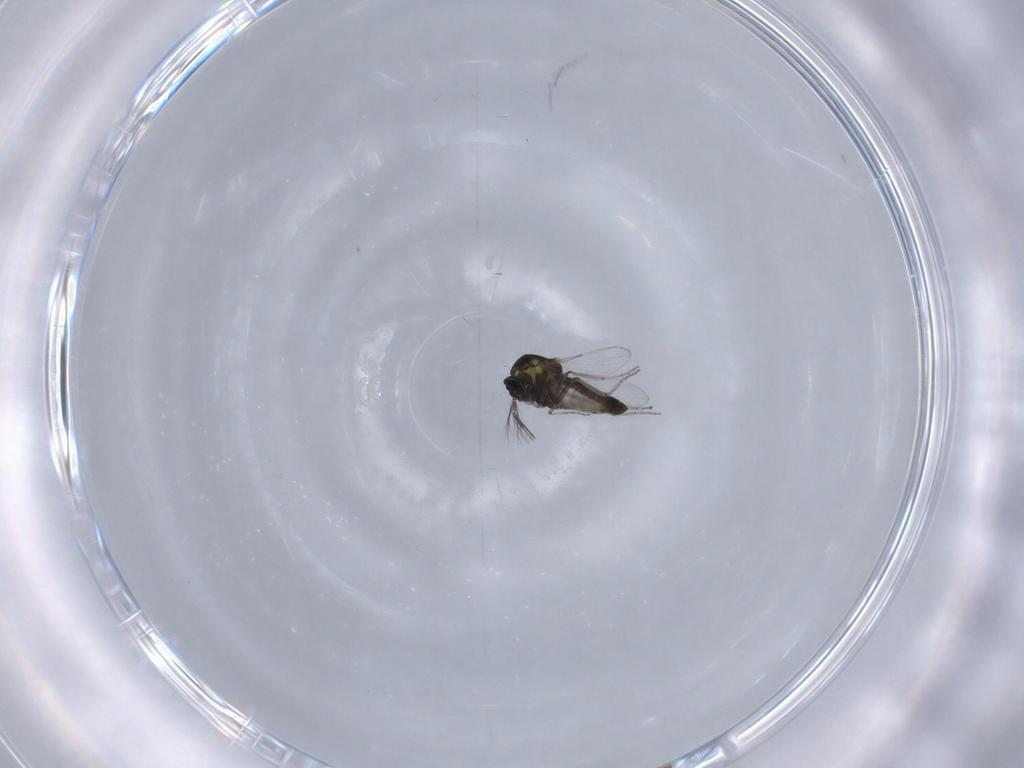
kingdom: Animalia
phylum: Arthropoda
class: Insecta
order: Diptera
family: Ceratopogonidae
